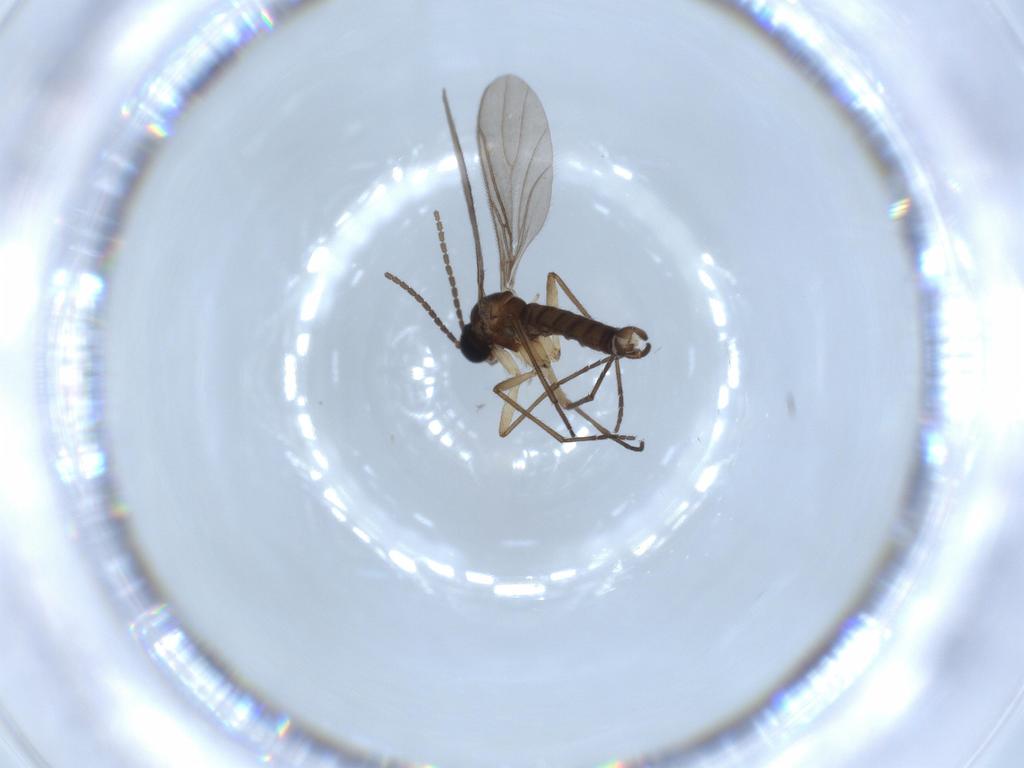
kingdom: Animalia
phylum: Arthropoda
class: Insecta
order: Diptera
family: Sciaridae
